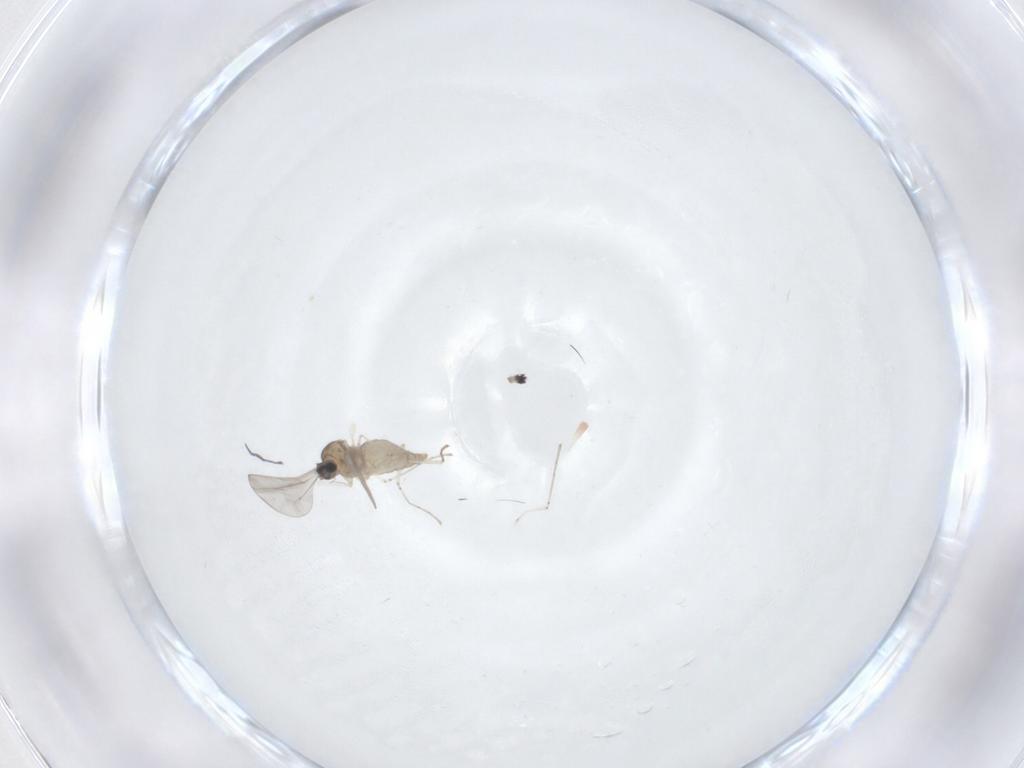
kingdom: Animalia
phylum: Arthropoda
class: Insecta
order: Diptera
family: Cecidomyiidae
